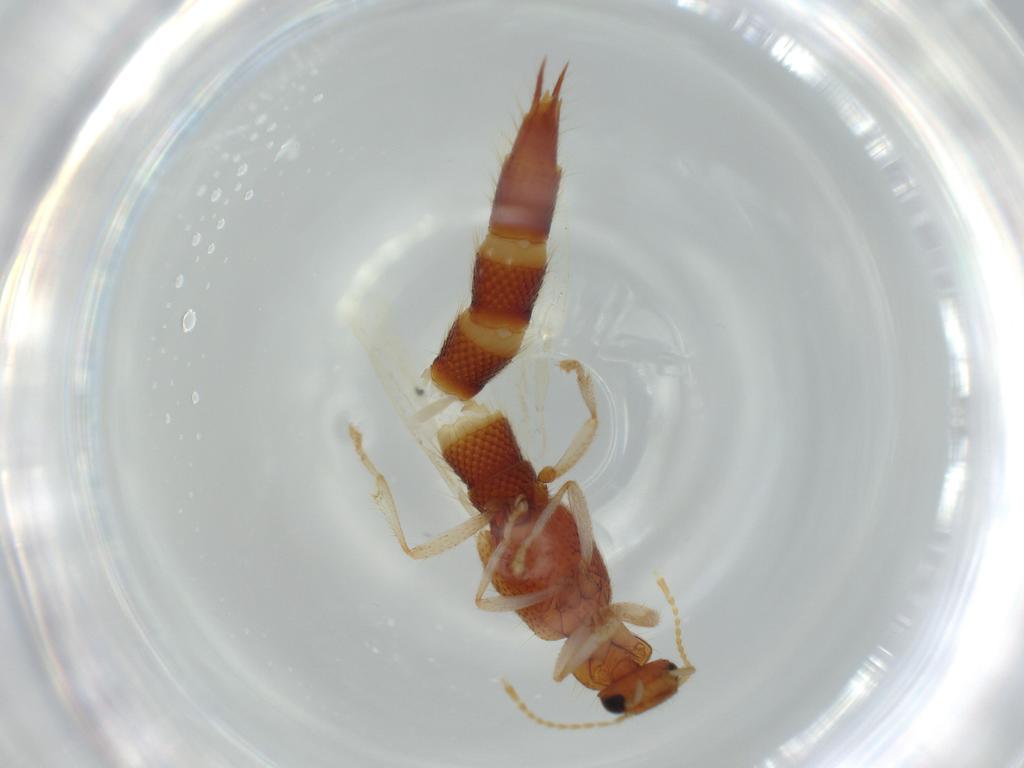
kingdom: Animalia
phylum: Arthropoda
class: Insecta
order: Coleoptera
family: Staphylinidae
